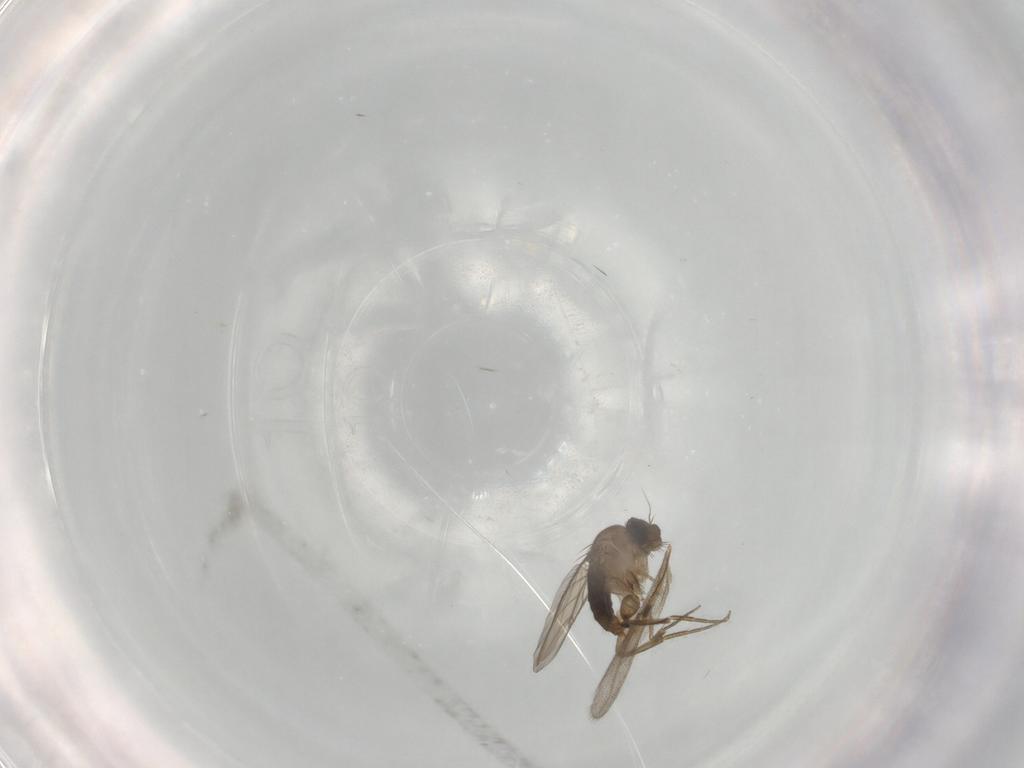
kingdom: Animalia
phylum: Arthropoda
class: Insecta
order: Diptera
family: Phoridae
